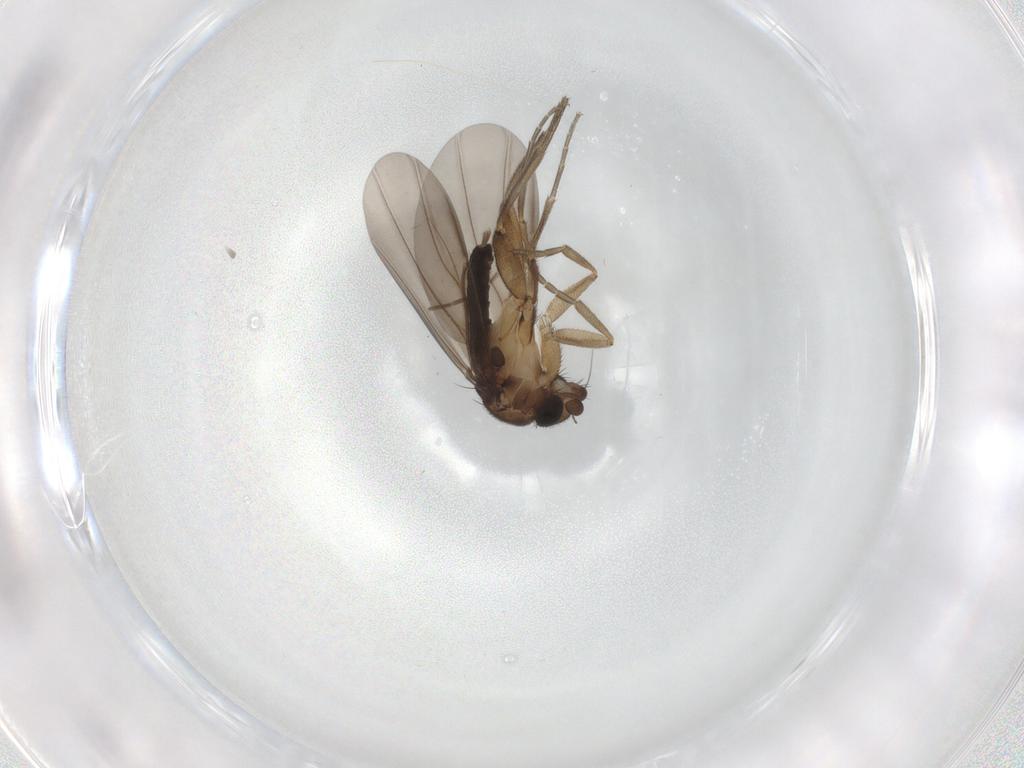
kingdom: Animalia
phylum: Arthropoda
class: Insecta
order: Diptera
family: Phoridae
